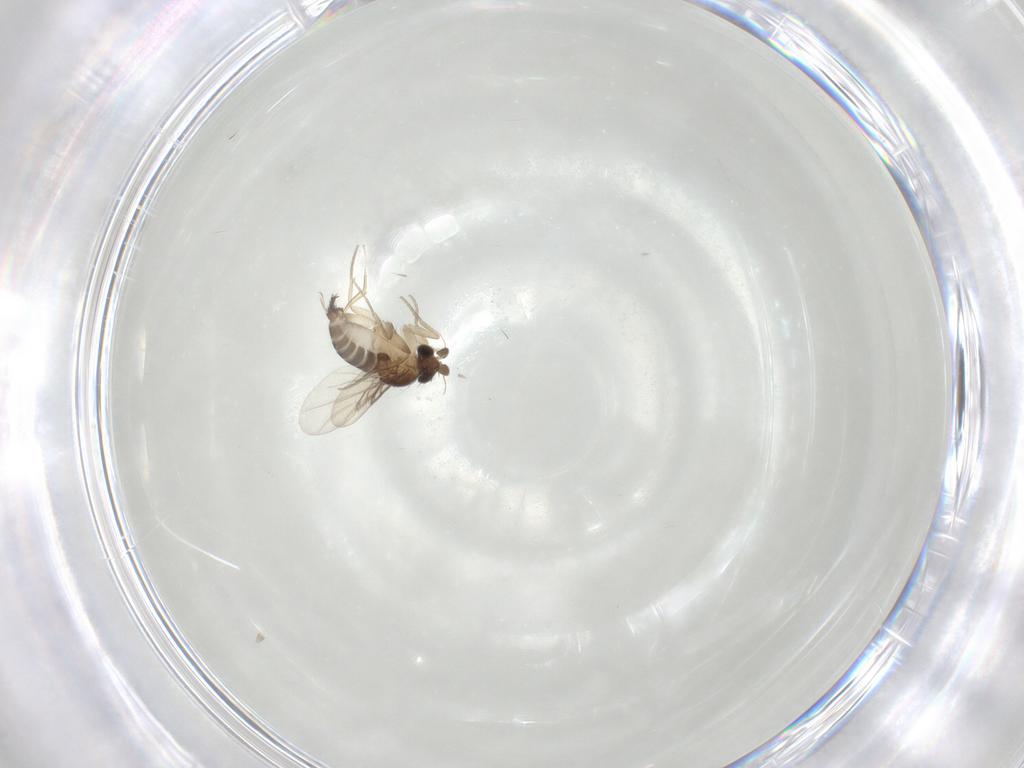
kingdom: Animalia
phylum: Arthropoda
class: Insecta
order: Diptera
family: Phoridae
